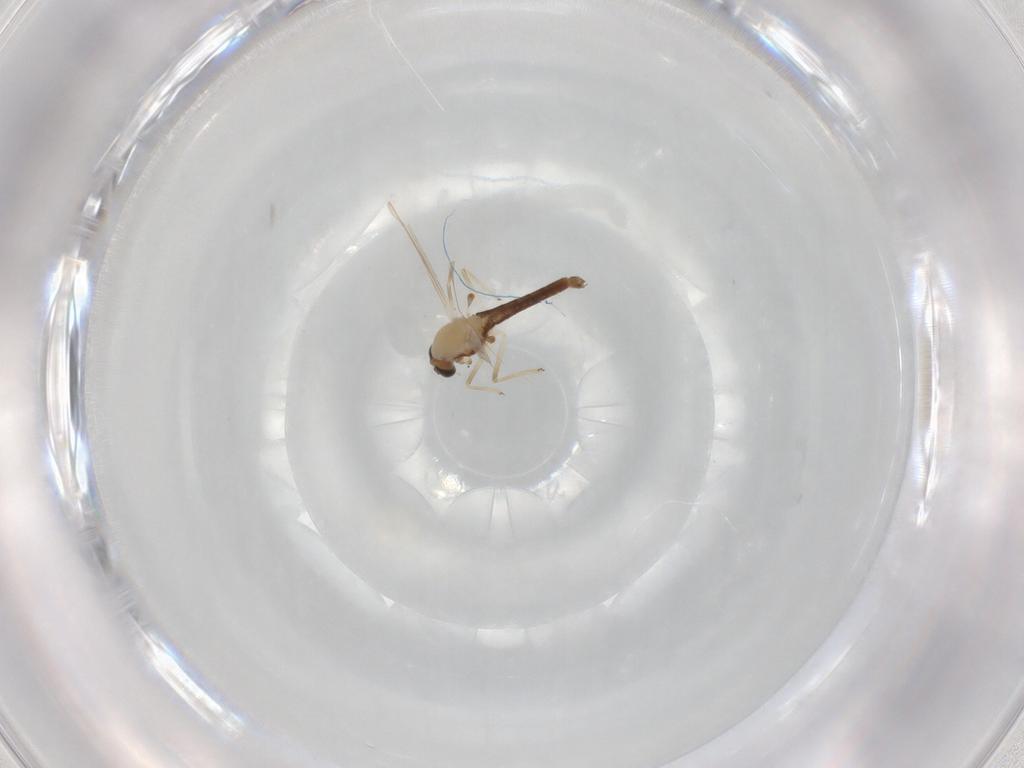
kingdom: Animalia
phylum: Arthropoda
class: Insecta
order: Diptera
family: Chironomidae
